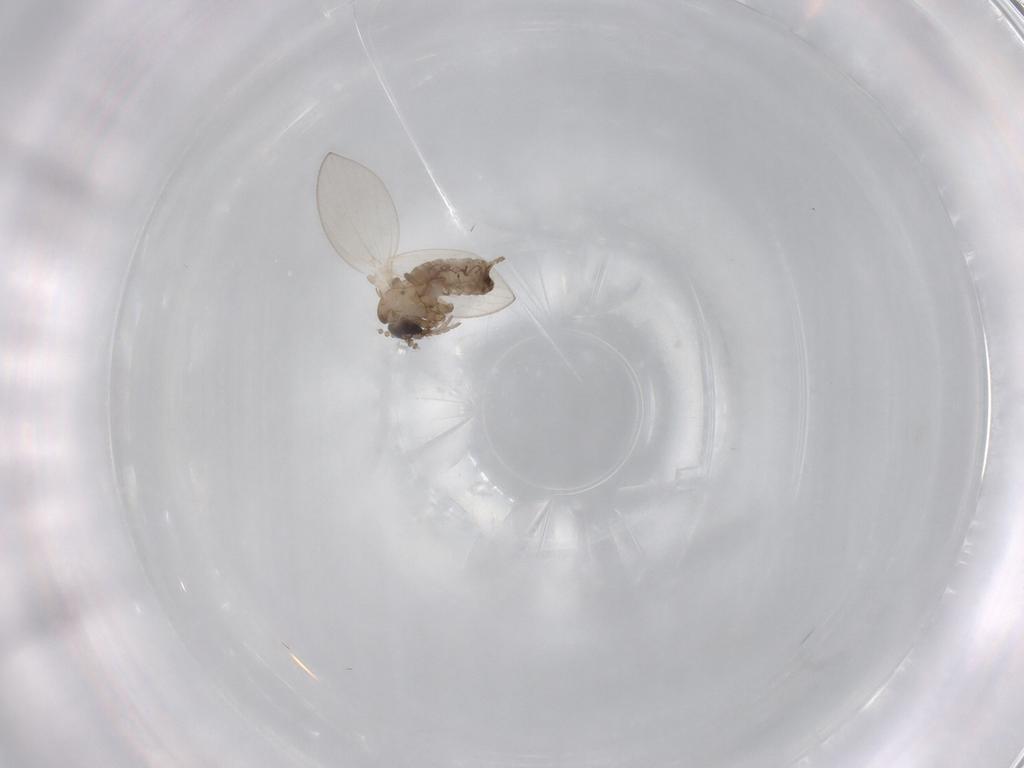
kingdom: Animalia
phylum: Arthropoda
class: Insecta
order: Diptera
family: Psychodidae
